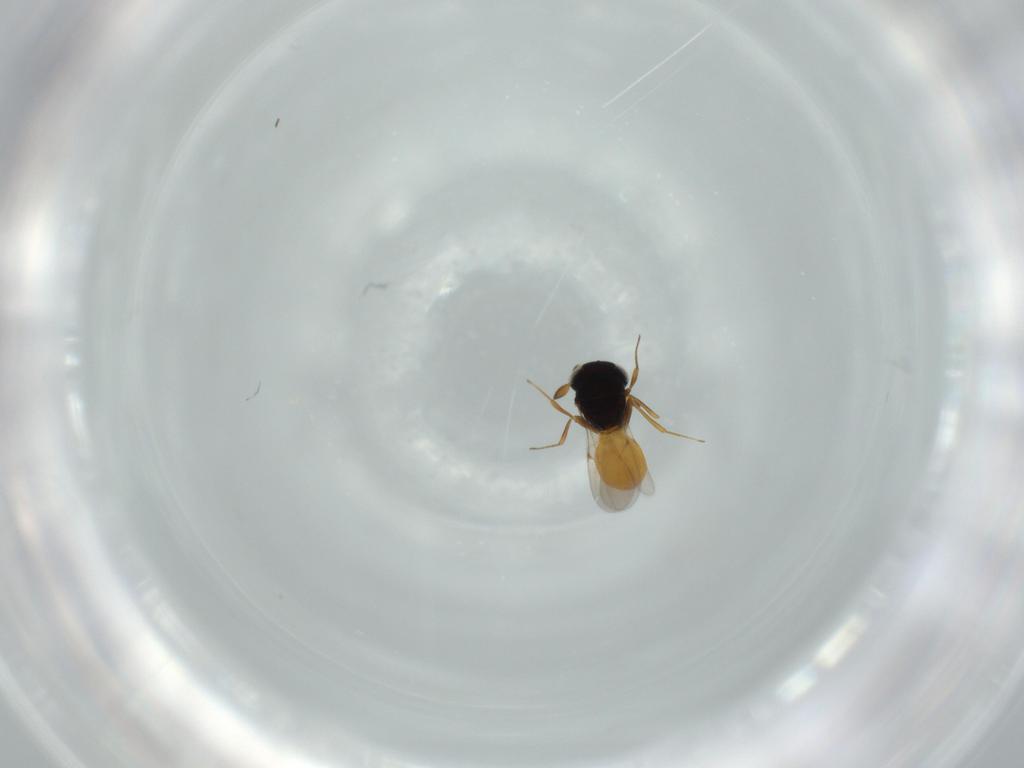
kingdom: Animalia
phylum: Arthropoda
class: Insecta
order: Hymenoptera
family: Scelionidae
